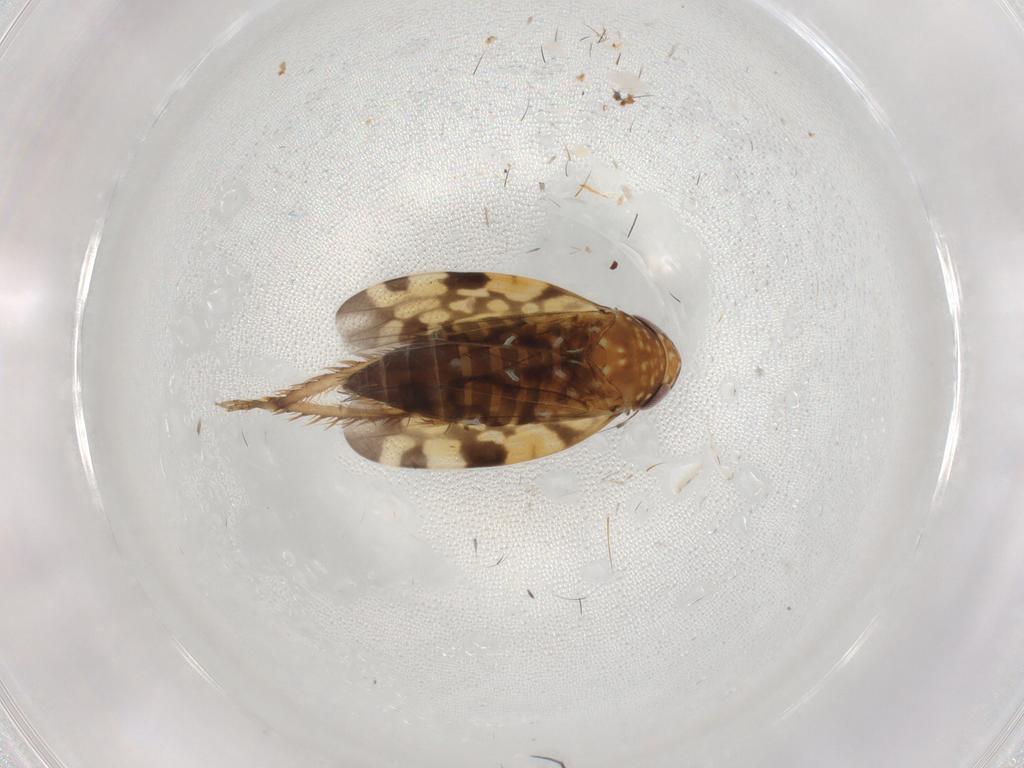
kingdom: Animalia
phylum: Arthropoda
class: Insecta
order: Hemiptera
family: Cicadellidae
